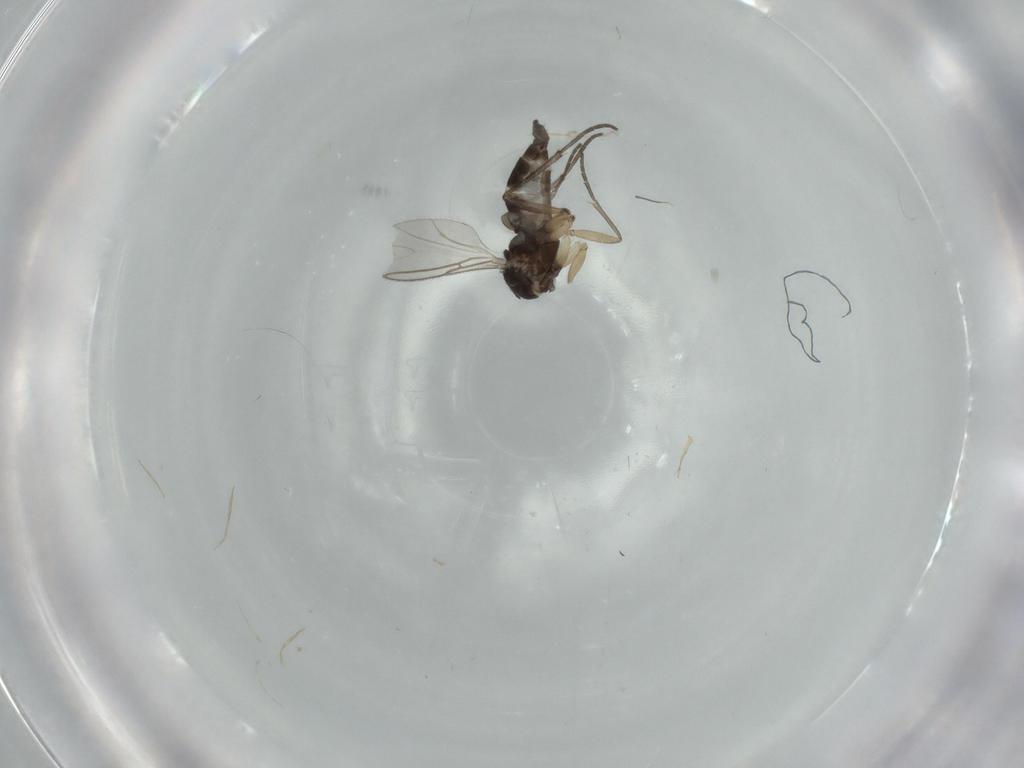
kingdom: Animalia
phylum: Arthropoda
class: Insecta
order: Diptera
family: Sciaridae
